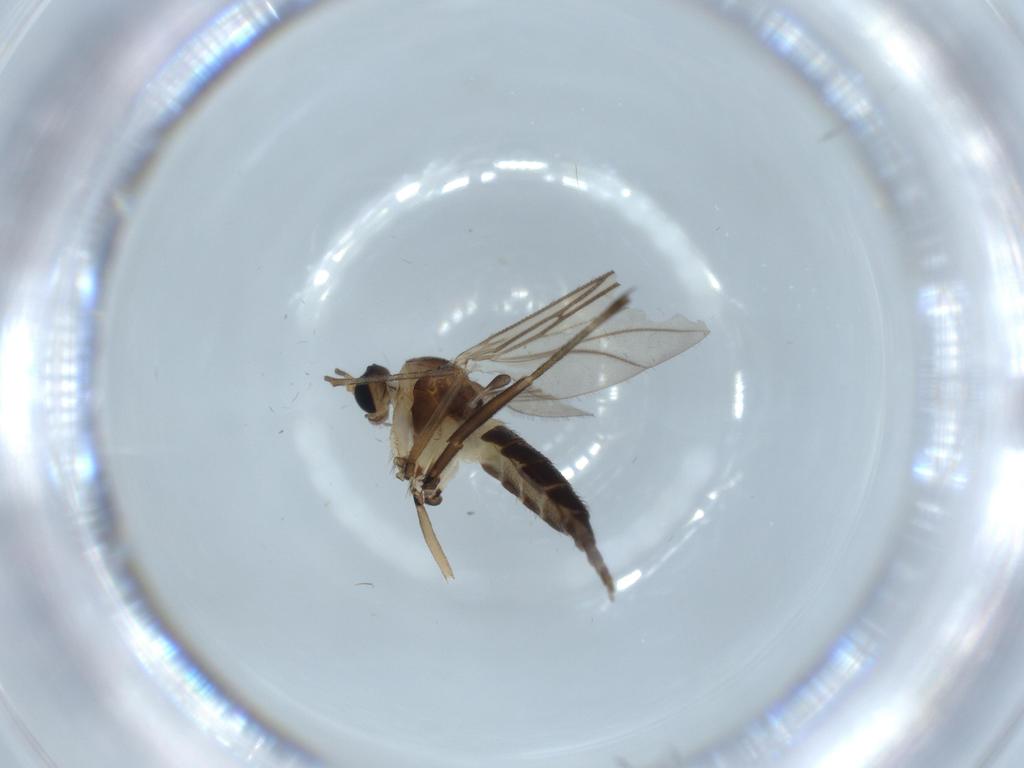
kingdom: Animalia
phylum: Arthropoda
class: Insecta
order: Diptera
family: Sciaridae
